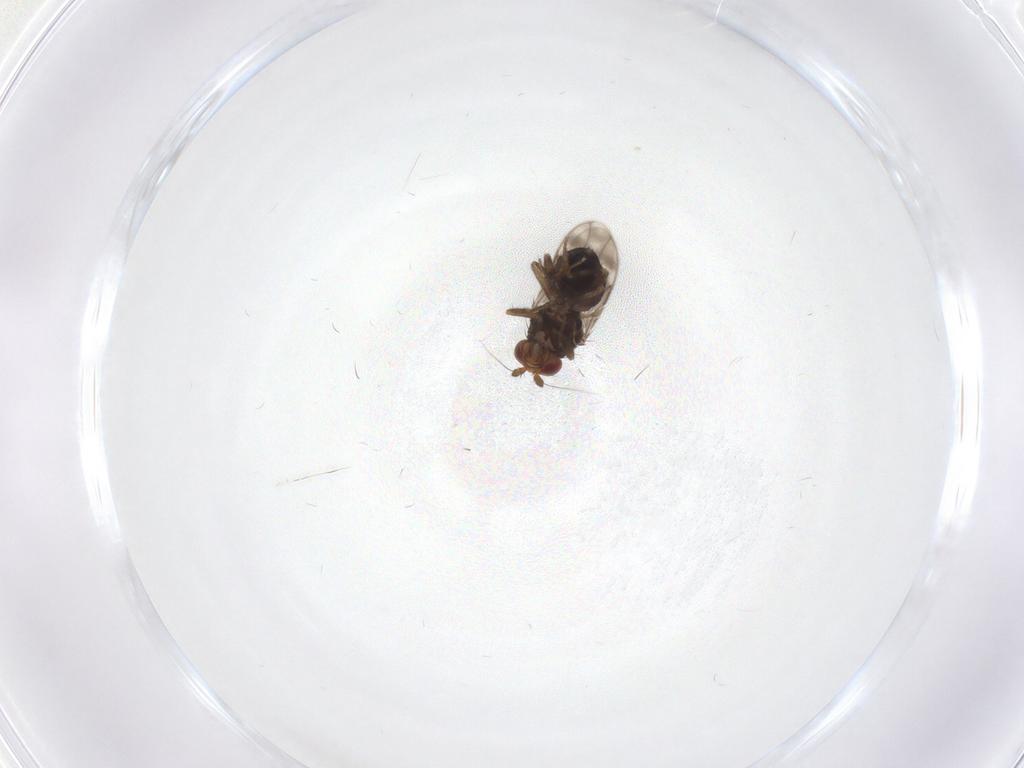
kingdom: Animalia
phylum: Arthropoda
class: Insecta
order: Diptera
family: Sphaeroceridae
